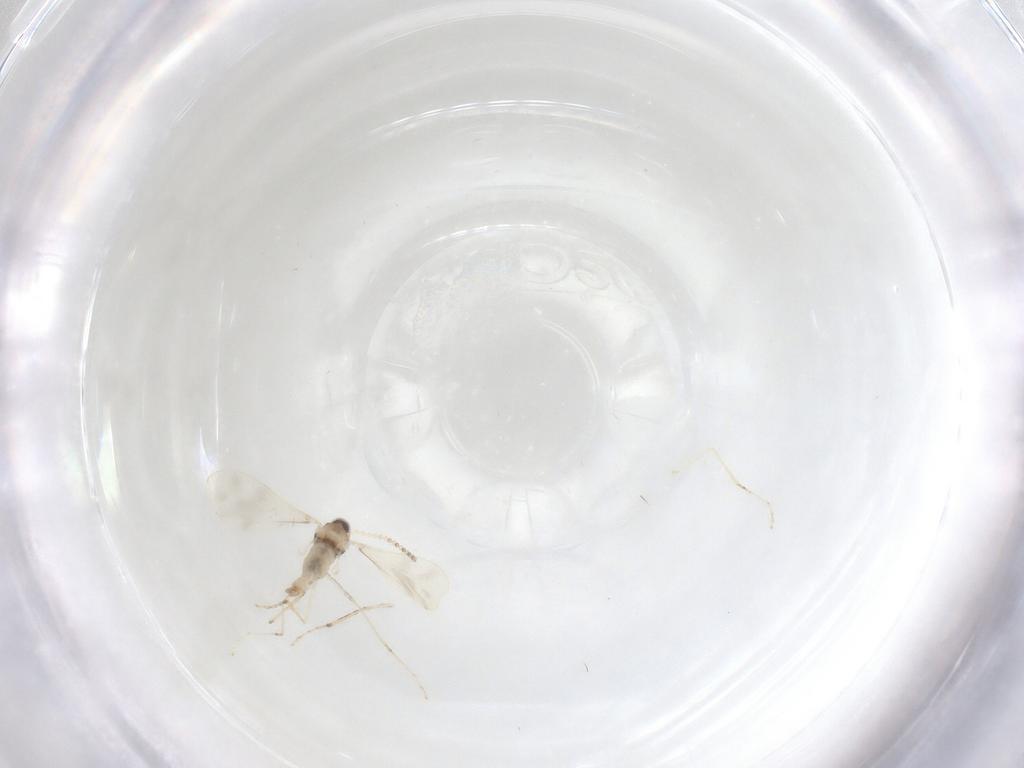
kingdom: Animalia
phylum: Arthropoda
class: Insecta
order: Diptera
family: Cecidomyiidae
